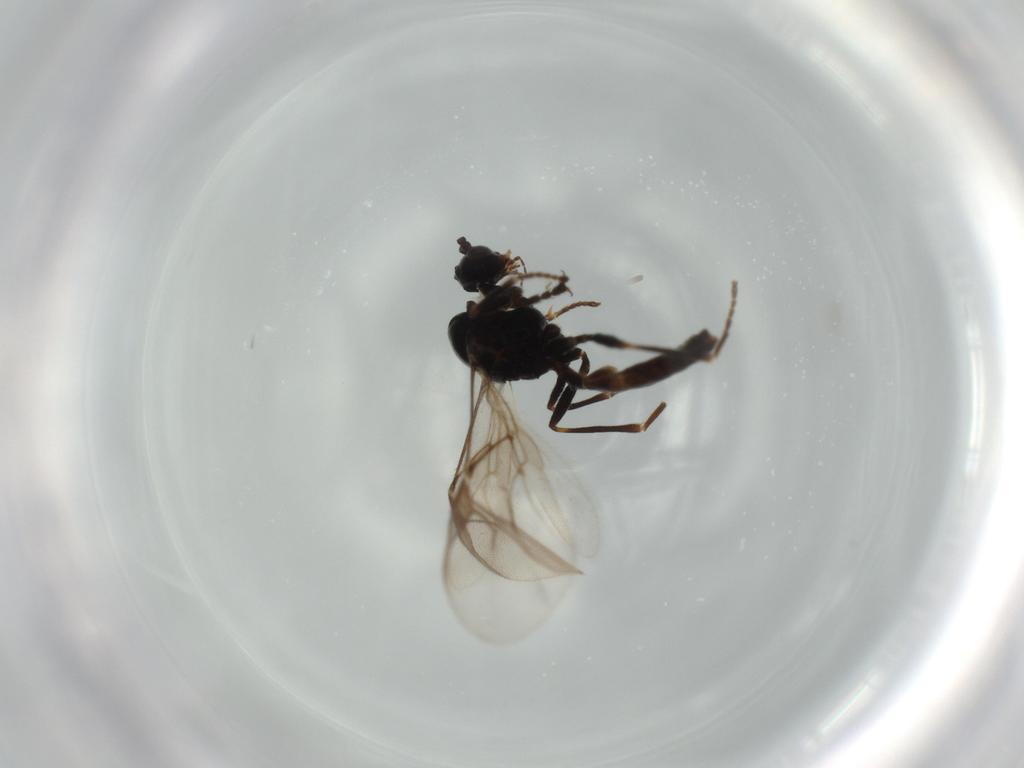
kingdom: Animalia
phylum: Arthropoda
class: Insecta
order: Hymenoptera
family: Braconidae
